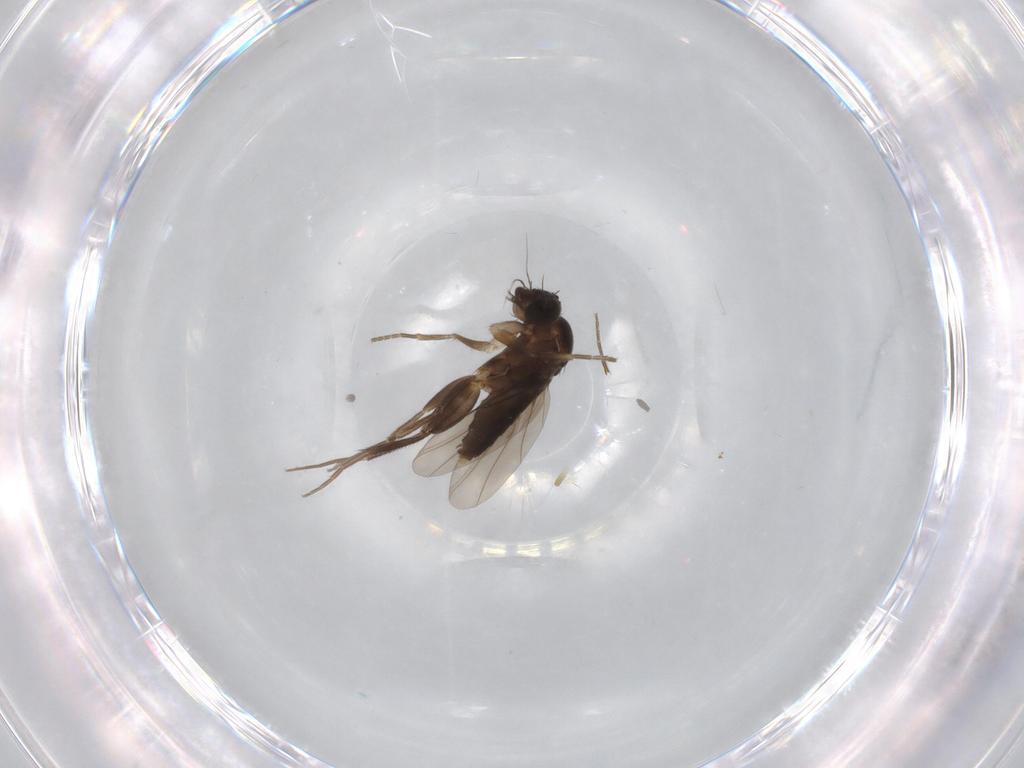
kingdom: Animalia
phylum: Arthropoda
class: Insecta
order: Diptera
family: Phoridae
